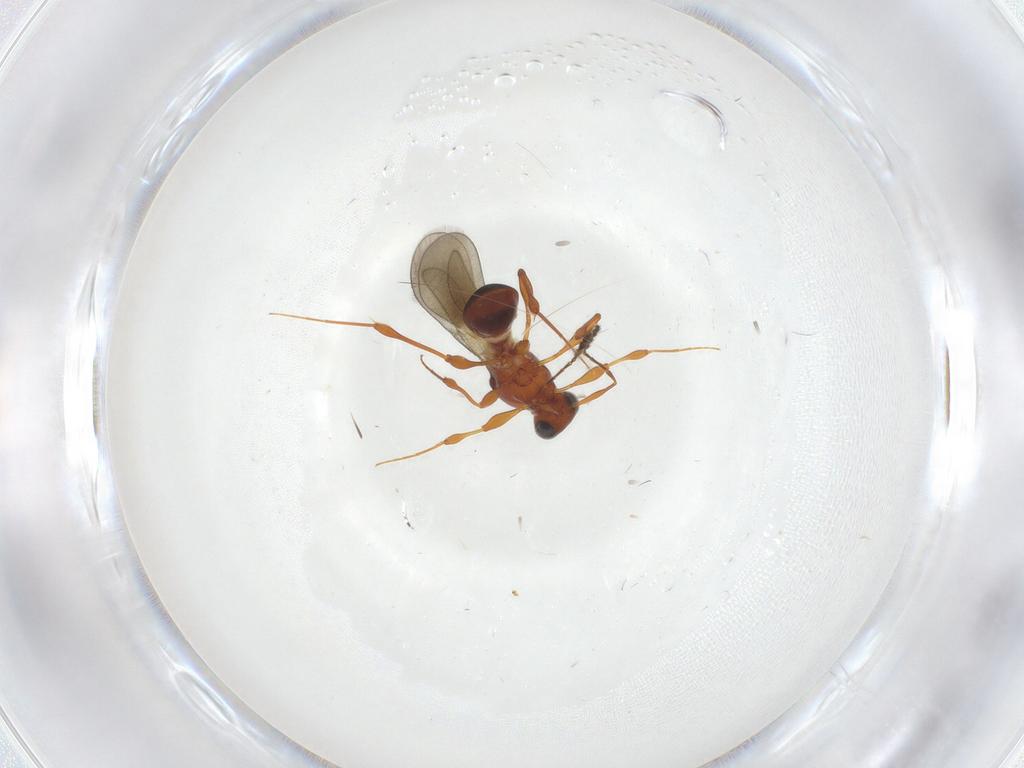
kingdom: Animalia
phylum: Arthropoda
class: Insecta
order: Hymenoptera
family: Platygastridae
